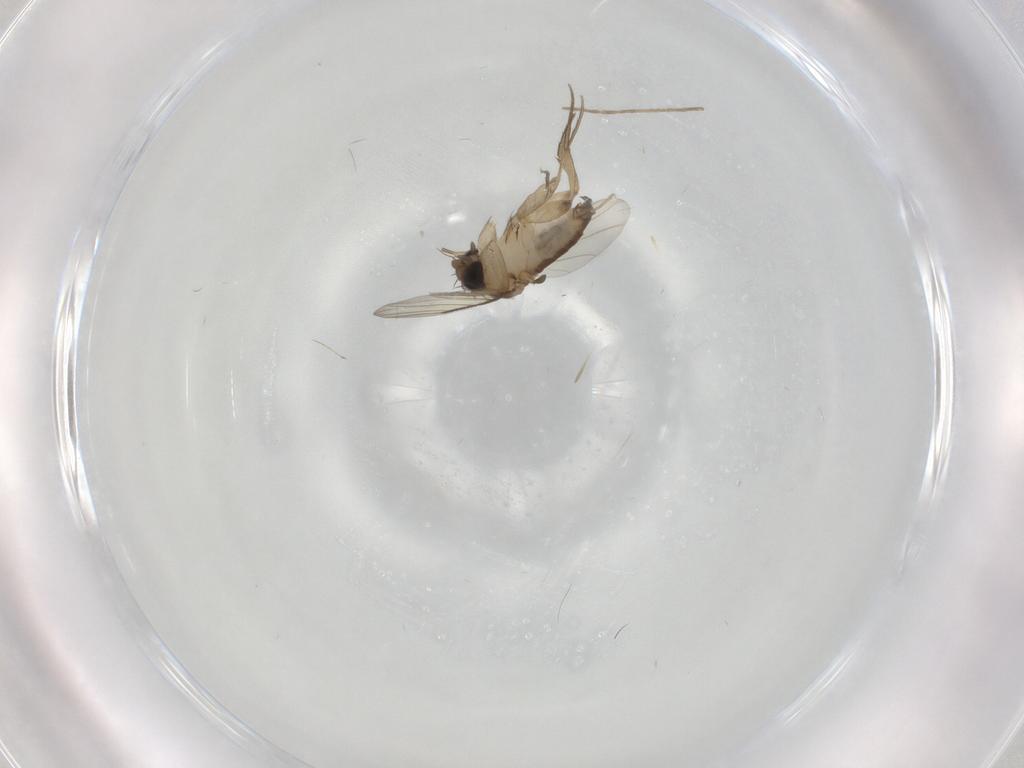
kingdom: Animalia
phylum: Arthropoda
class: Insecta
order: Diptera
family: Phoridae
